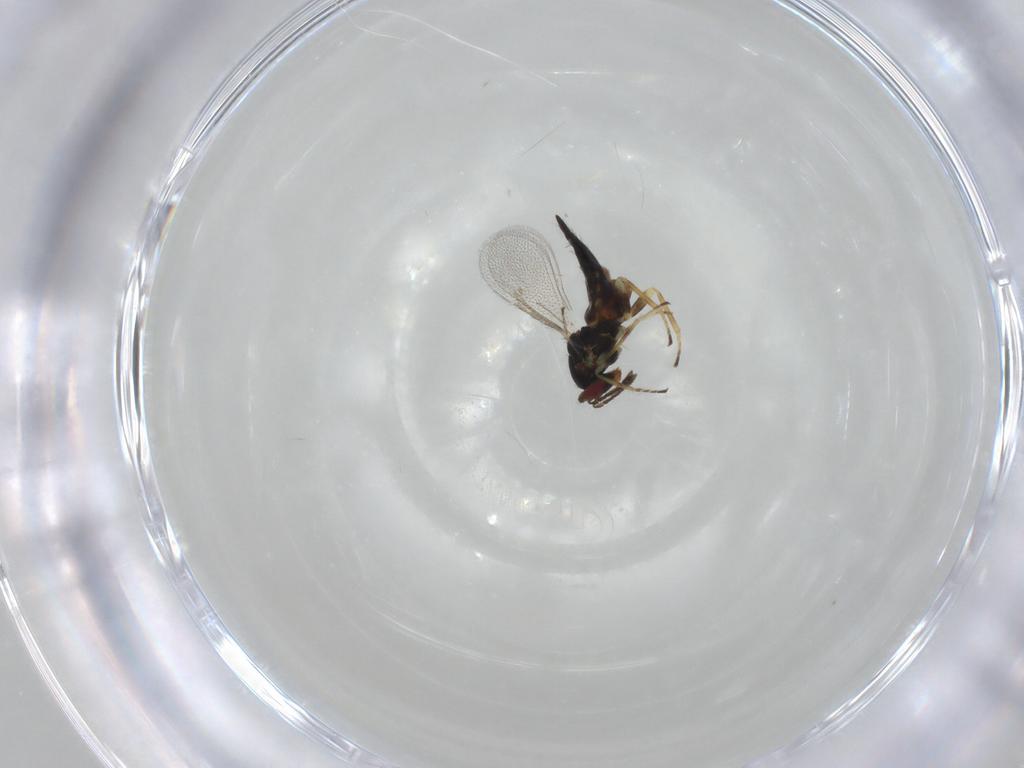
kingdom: Animalia
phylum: Arthropoda
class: Insecta
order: Hymenoptera
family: Eulophidae
